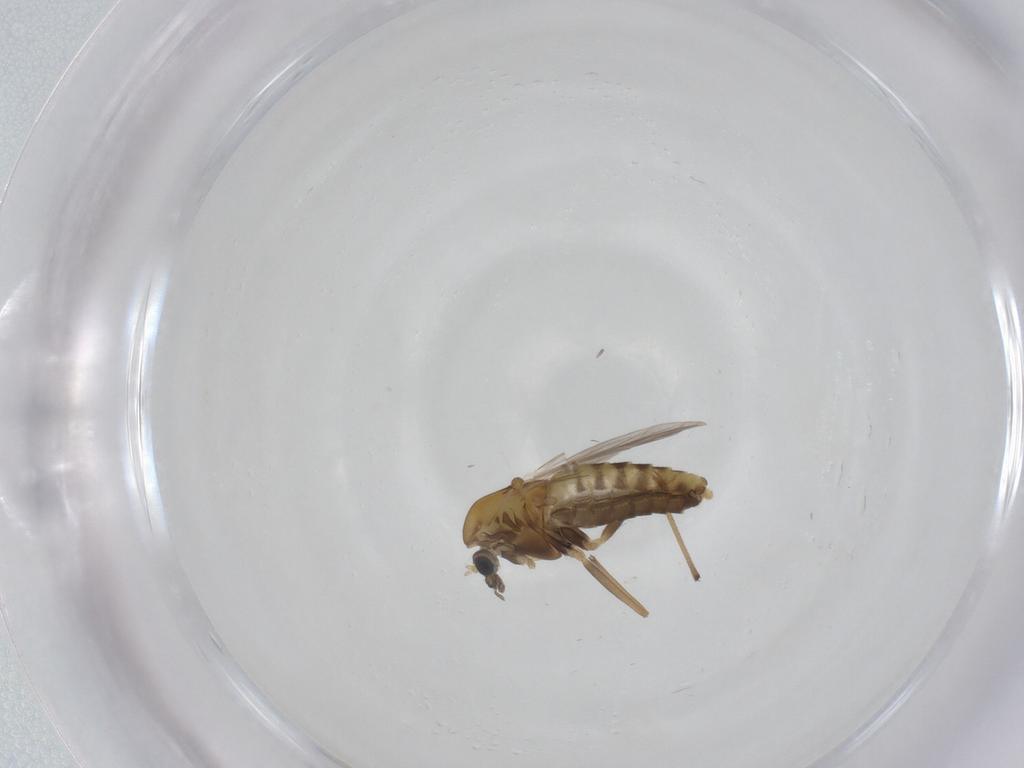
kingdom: Animalia
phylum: Arthropoda
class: Insecta
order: Diptera
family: Chironomidae
